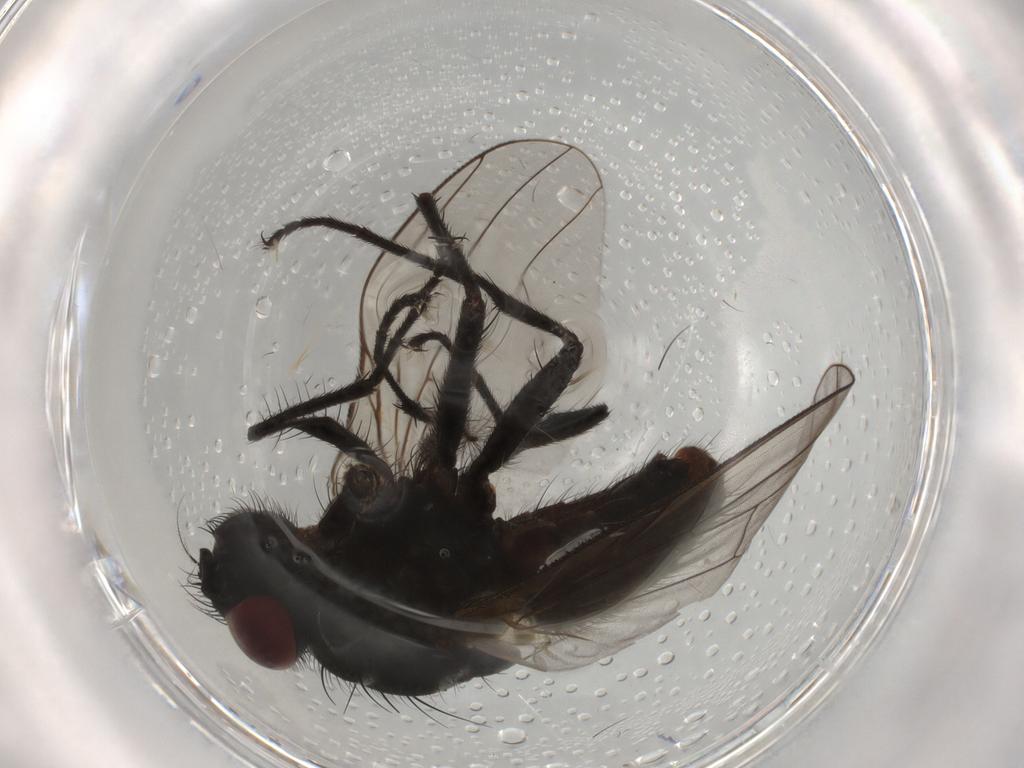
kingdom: Animalia
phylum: Arthropoda
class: Insecta
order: Diptera
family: Muscidae
